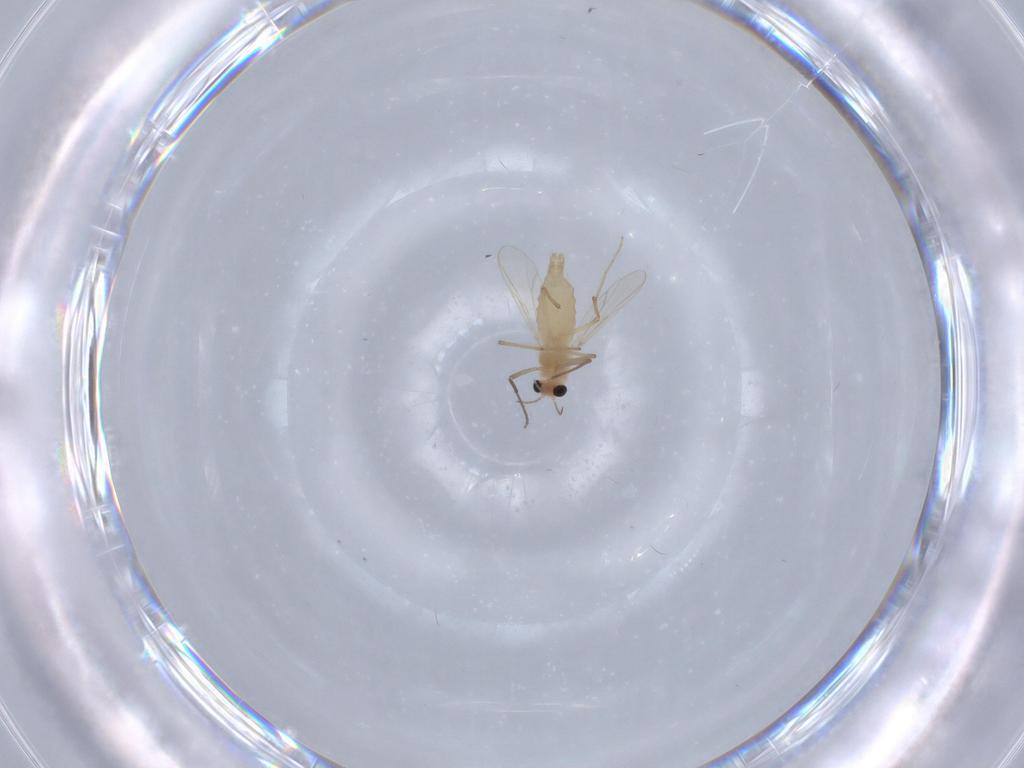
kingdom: Animalia
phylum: Arthropoda
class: Insecta
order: Diptera
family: Chironomidae
